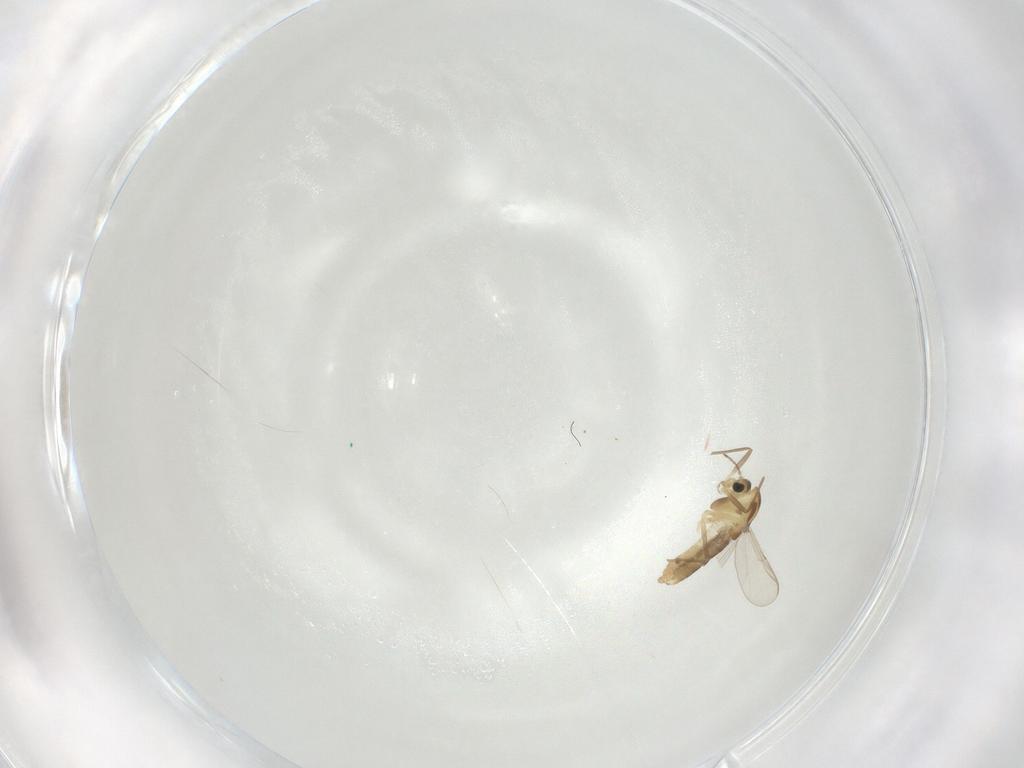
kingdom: Animalia
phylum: Arthropoda
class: Insecta
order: Diptera
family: Chironomidae
